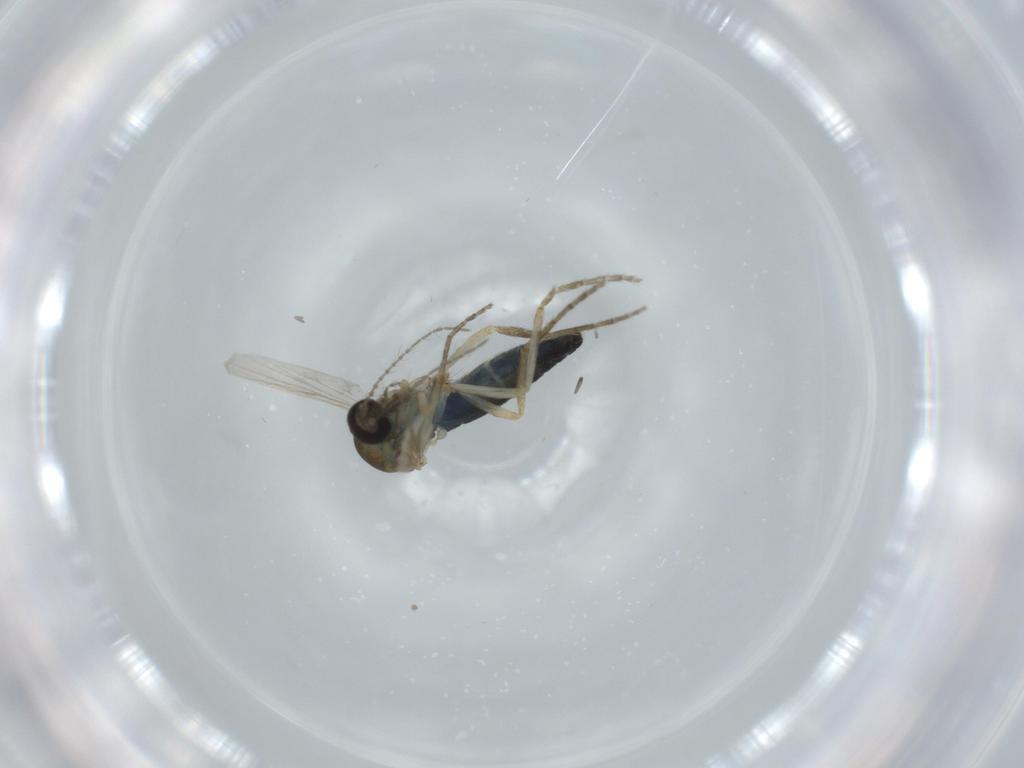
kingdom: Animalia
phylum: Arthropoda
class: Insecta
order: Diptera
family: Ceratopogonidae
